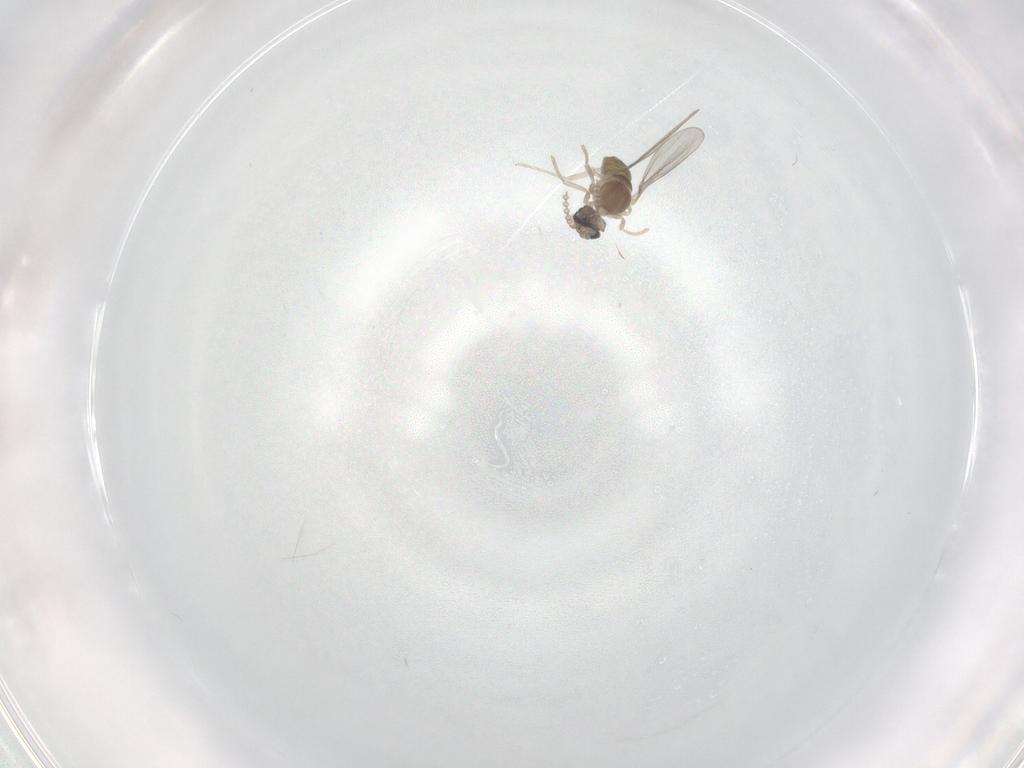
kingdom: Animalia
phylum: Arthropoda
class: Insecta
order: Diptera
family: Cecidomyiidae
